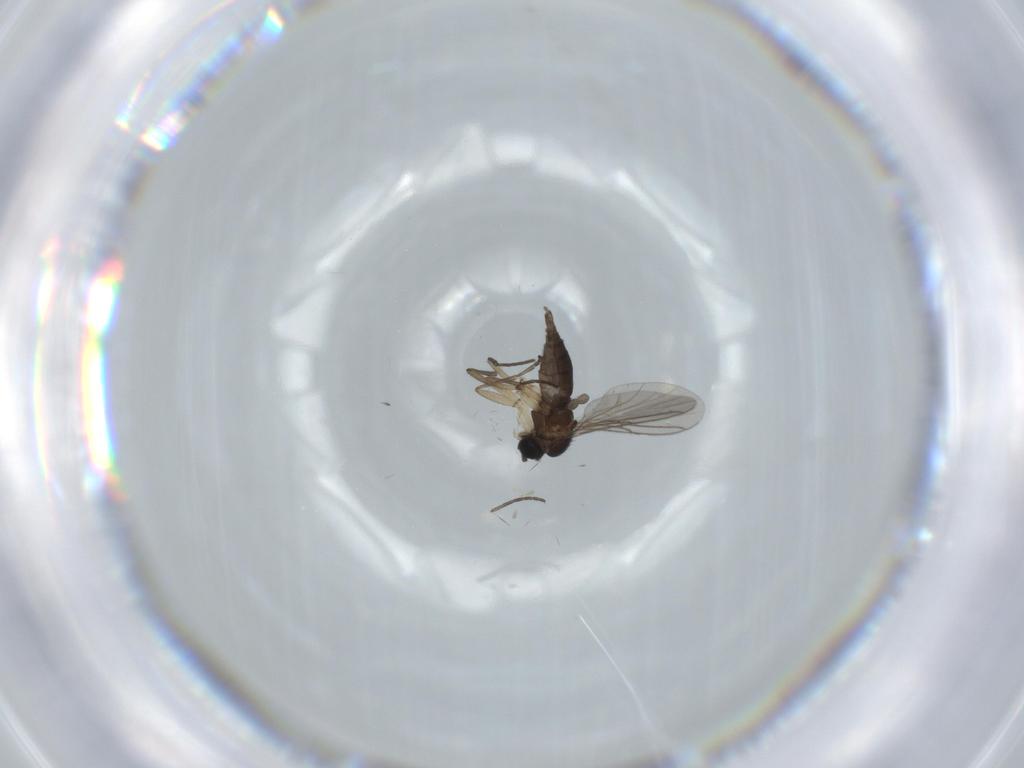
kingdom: Animalia
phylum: Arthropoda
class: Insecta
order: Diptera
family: Sciaridae
